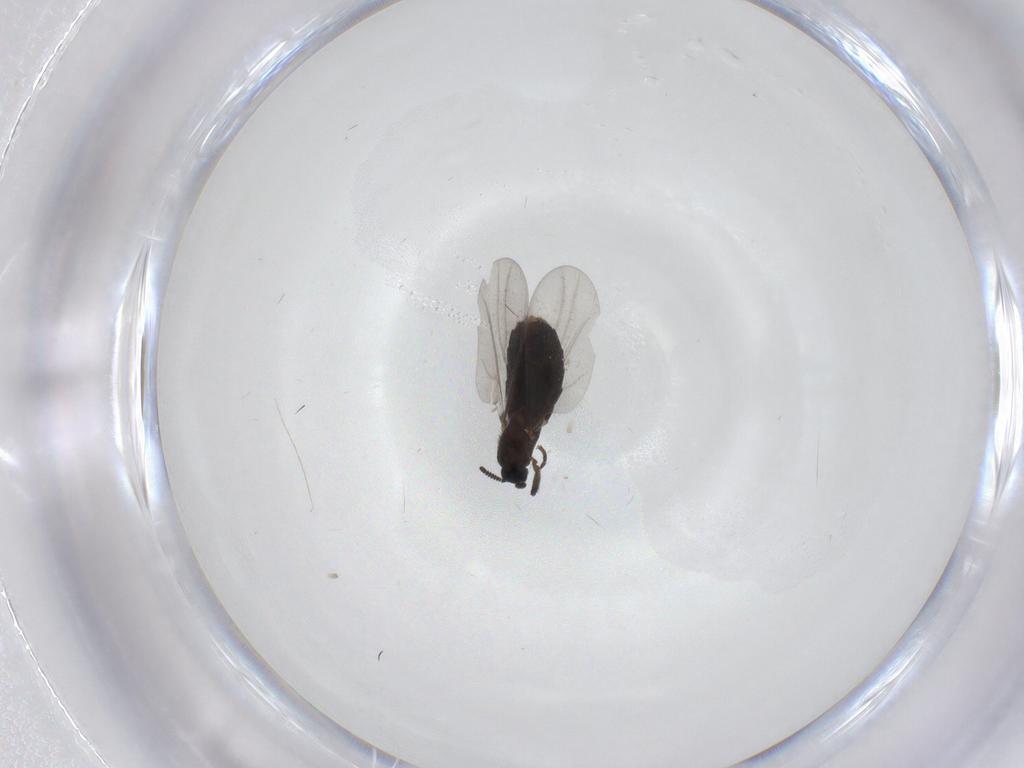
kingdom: Animalia
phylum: Arthropoda
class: Insecta
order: Diptera
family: Scatopsidae
